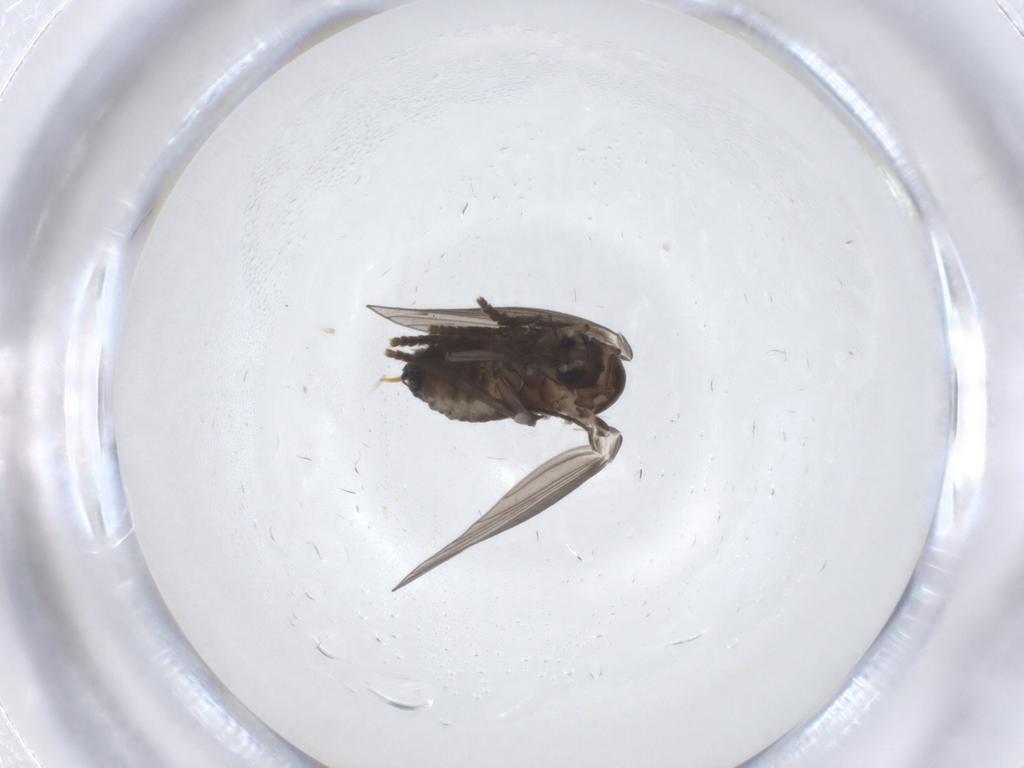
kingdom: Animalia
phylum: Arthropoda
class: Insecta
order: Diptera
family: Psychodidae
